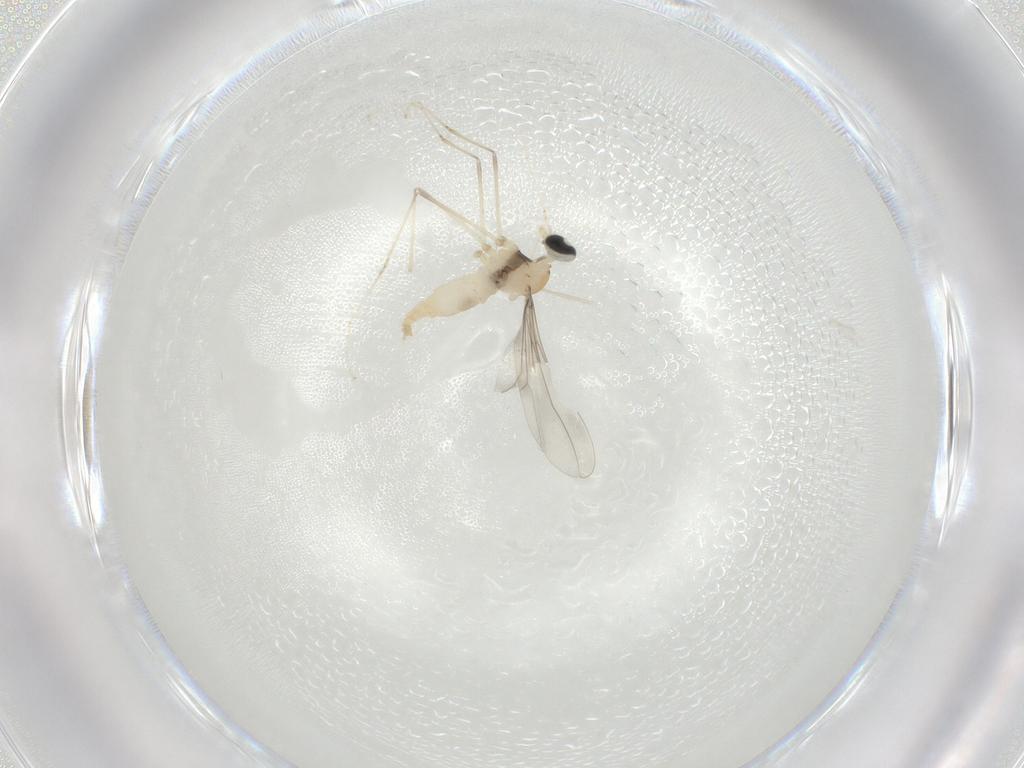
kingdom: Animalia
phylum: Arthropoda
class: Insecta
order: Diptera
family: Cecidomyiidae
